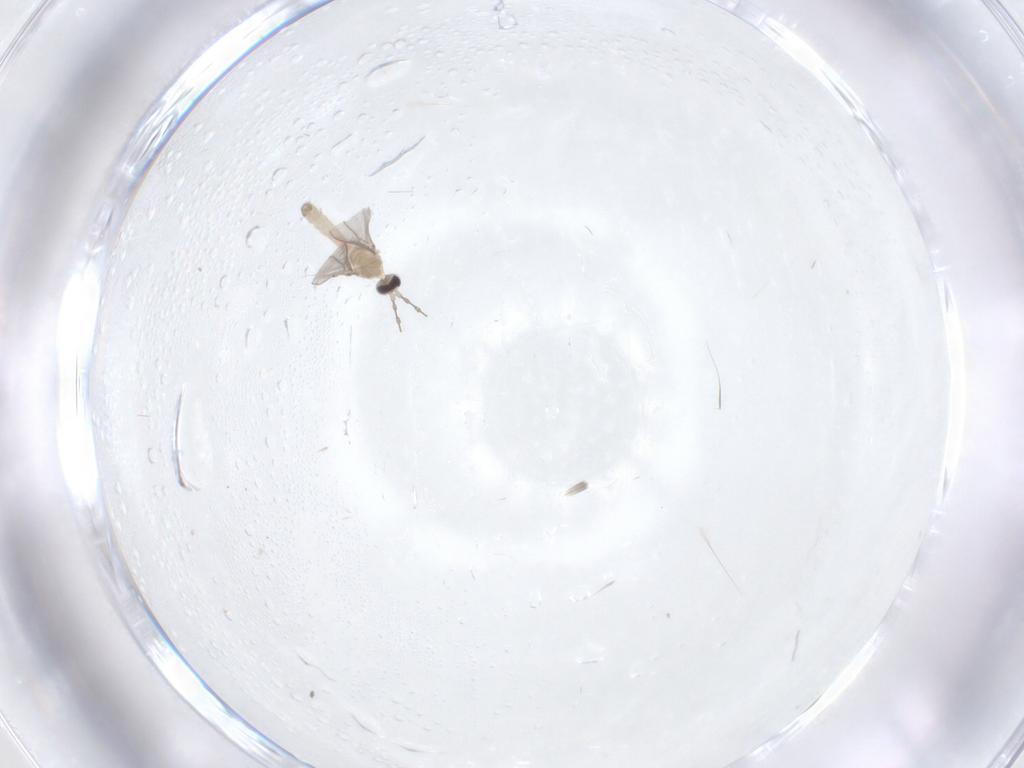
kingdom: Animalia
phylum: Arthropoda
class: Insecta
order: Diptera
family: Cecidomyiidae
